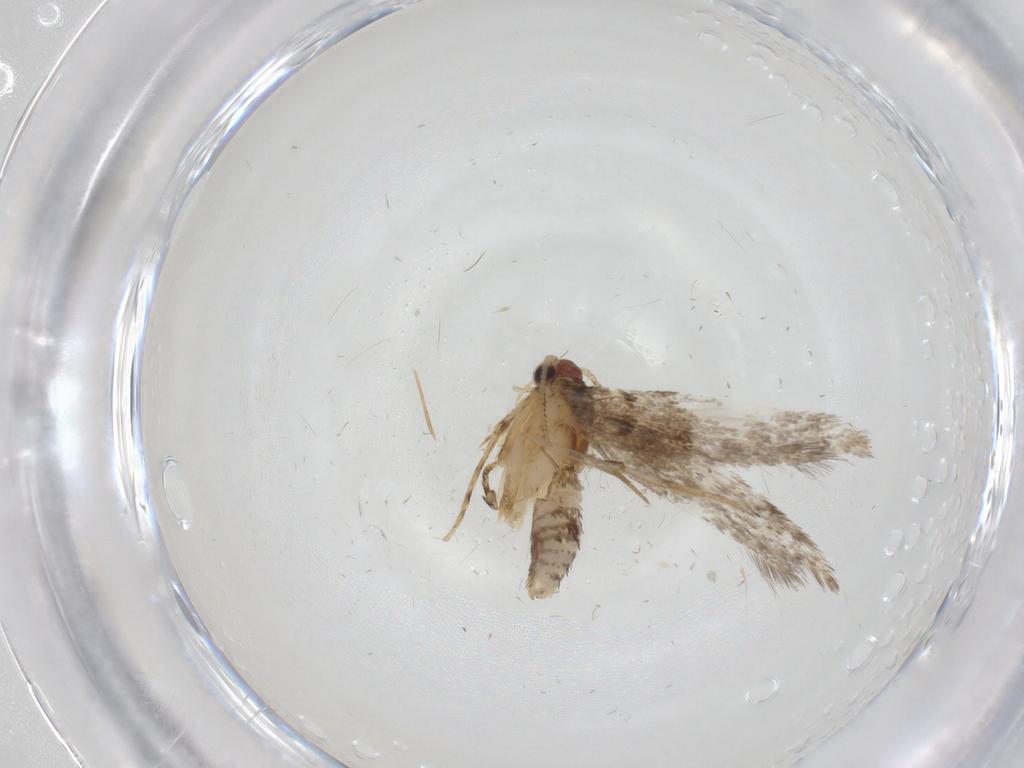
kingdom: Animalia
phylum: Arthropoda
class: Insecta
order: Lepidoptera
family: Tineidae
